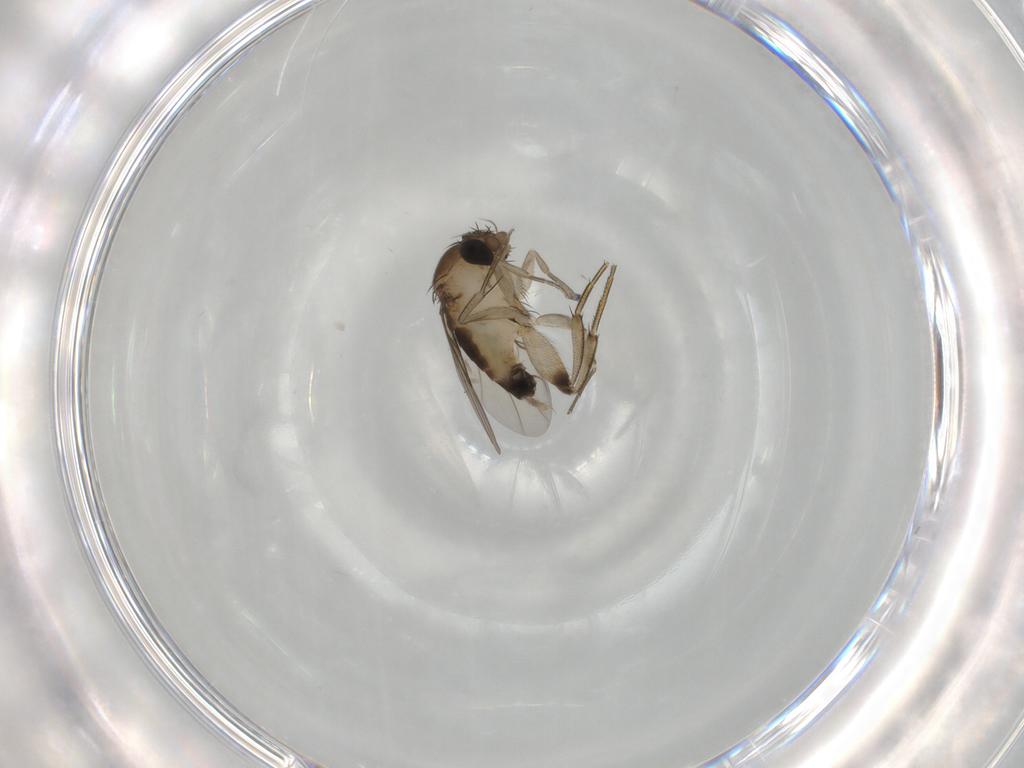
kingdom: Animalia
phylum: Arthropoda
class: Insecta
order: Diptera
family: Phoridae
